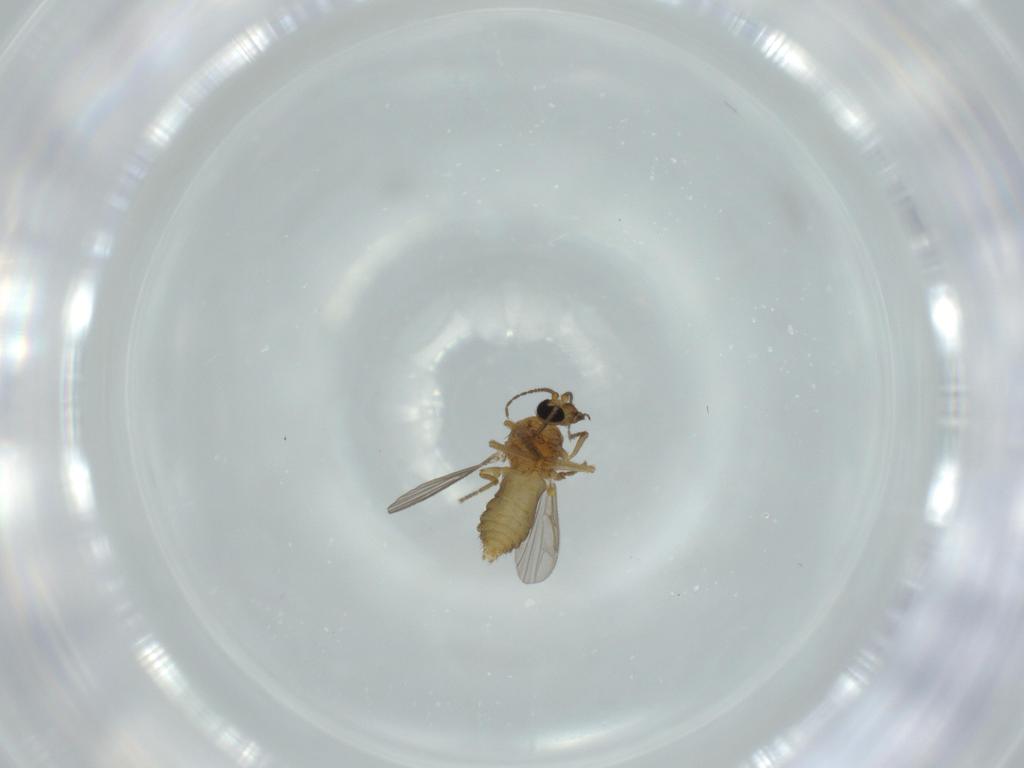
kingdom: Animalia
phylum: Arthropoda
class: Insecta
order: Diptera
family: Ceratopogonidae
